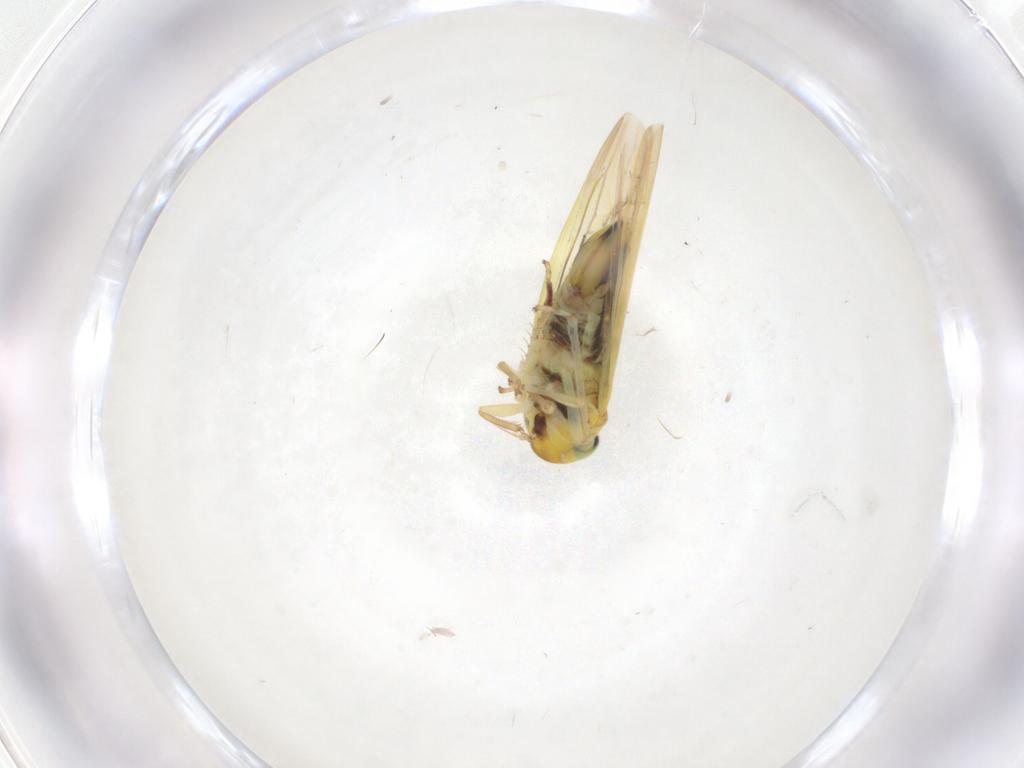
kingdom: Animalia
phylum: Arthropoda
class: Insecta
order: Hemiptera
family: Cicadellidae
